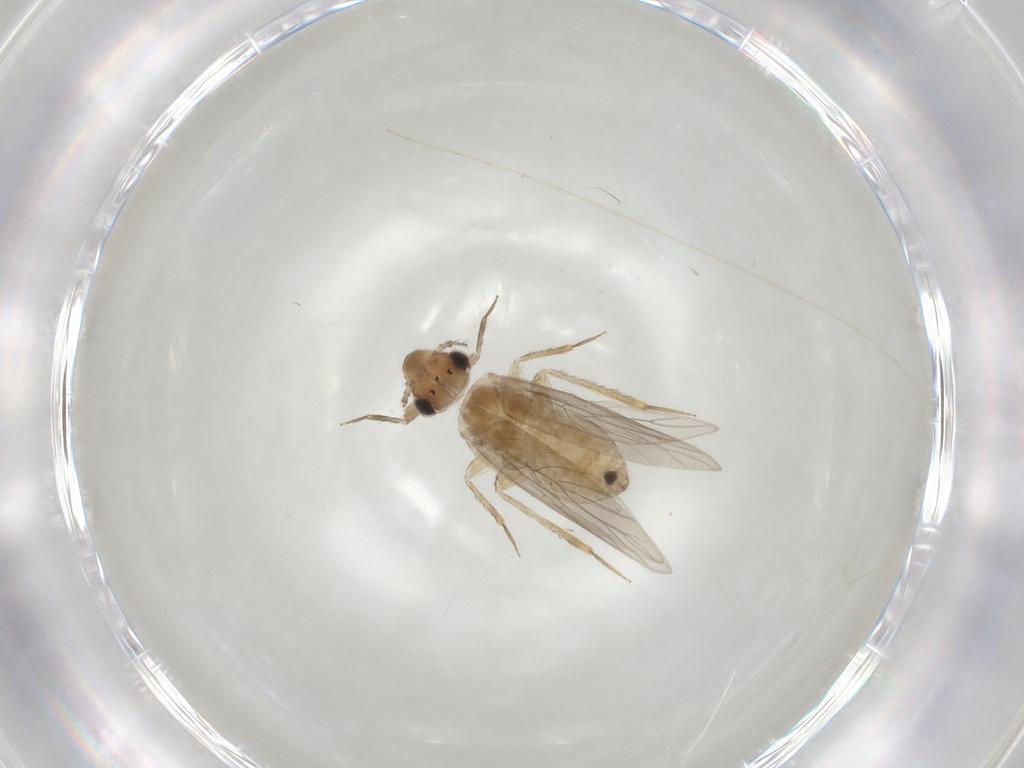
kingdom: Animalia
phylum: Arthropoda
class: Insecta
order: Psocodea
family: Lepidopsocidae
